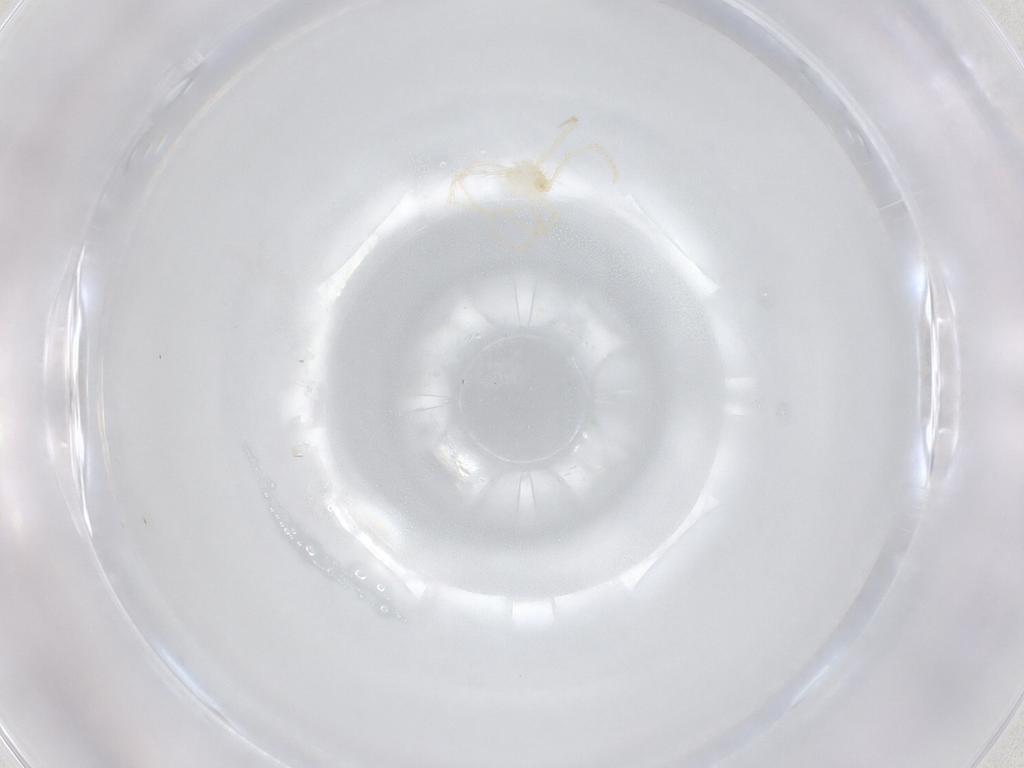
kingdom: Animalia
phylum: Arthropoda
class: Arachnida
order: Trombidiformes
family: Erythraeidae
